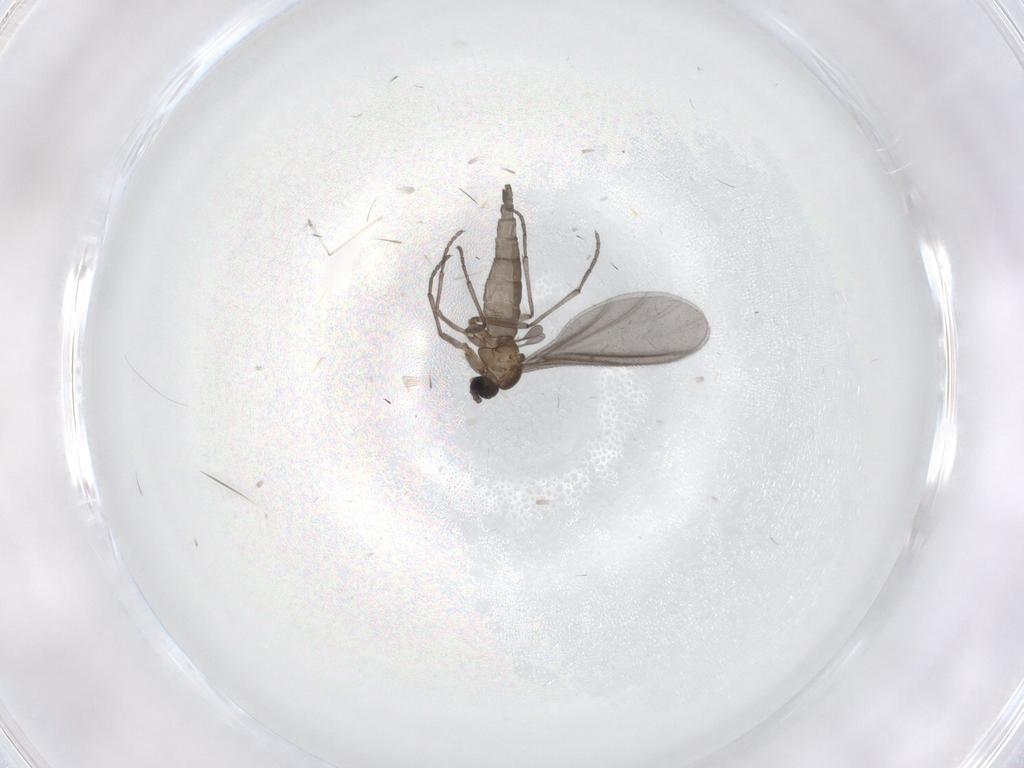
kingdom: Animalia
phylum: Arthropoda
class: Insecta
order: Diptera
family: Sciaridae
